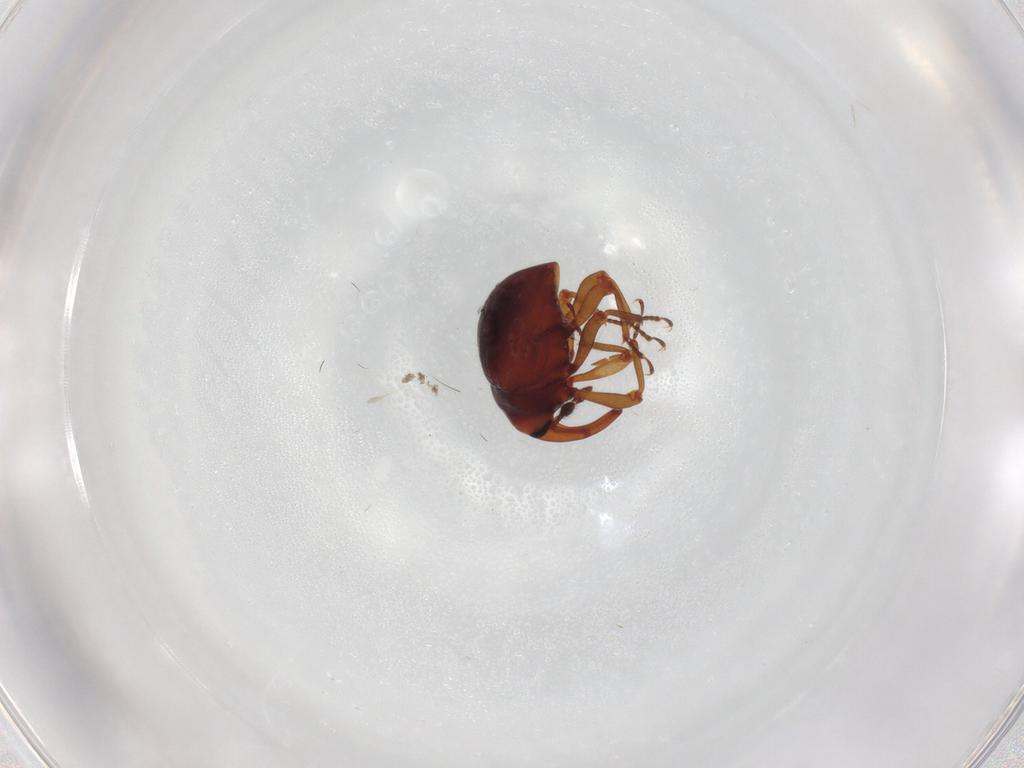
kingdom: Animalia
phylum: Arthropoda
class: Insecta
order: Coleoptera
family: Curculionidae
